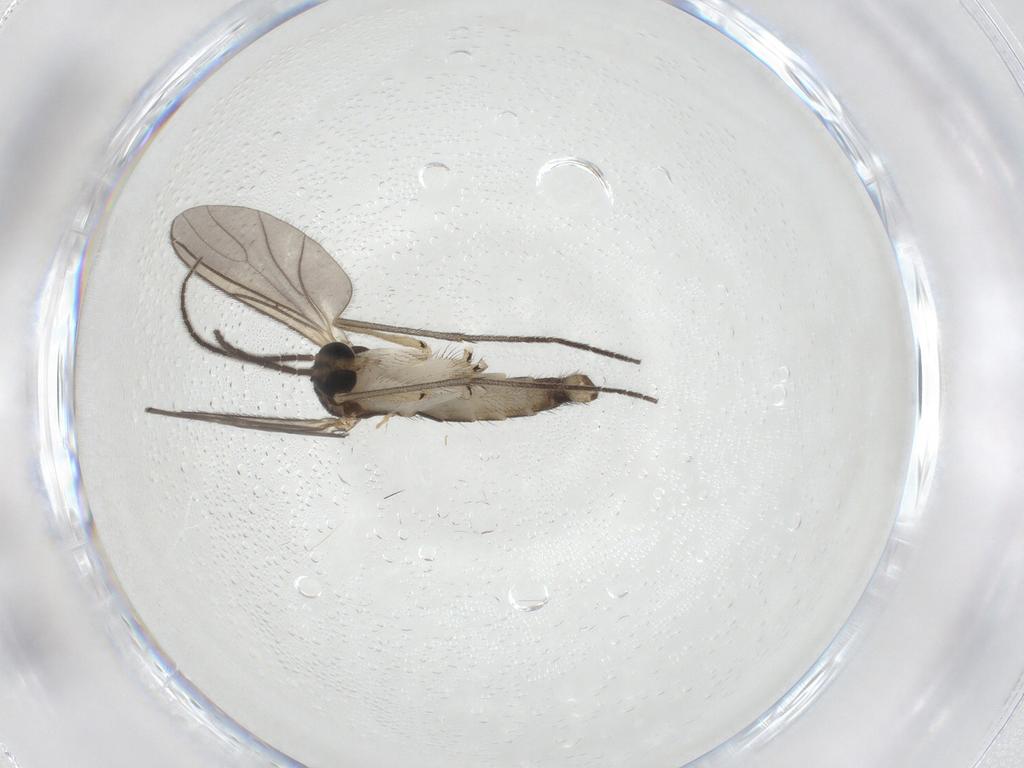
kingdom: Animalia
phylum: Arthropoda
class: Insecta
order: Diptera
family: Sciaridae
